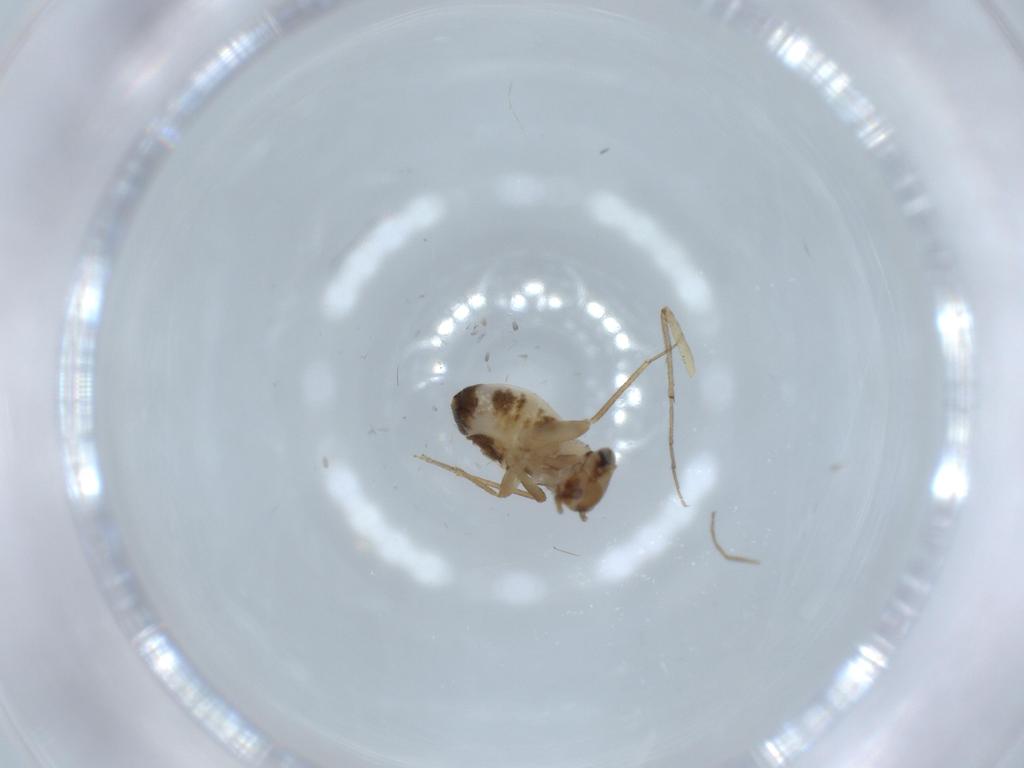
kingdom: Animalia
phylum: Arthropoda
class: Insecta
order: Psocodea
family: Lepidopsocidae
